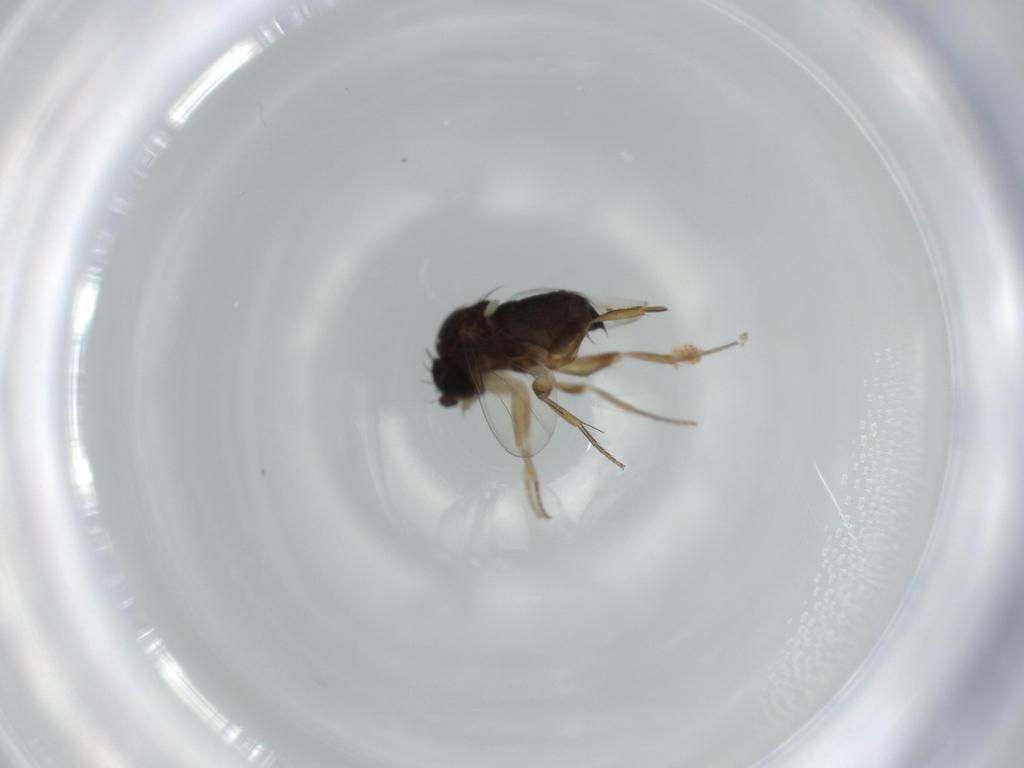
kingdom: Animalia
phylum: Arthropoda
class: Insecta
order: Diptera
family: Phoridae
